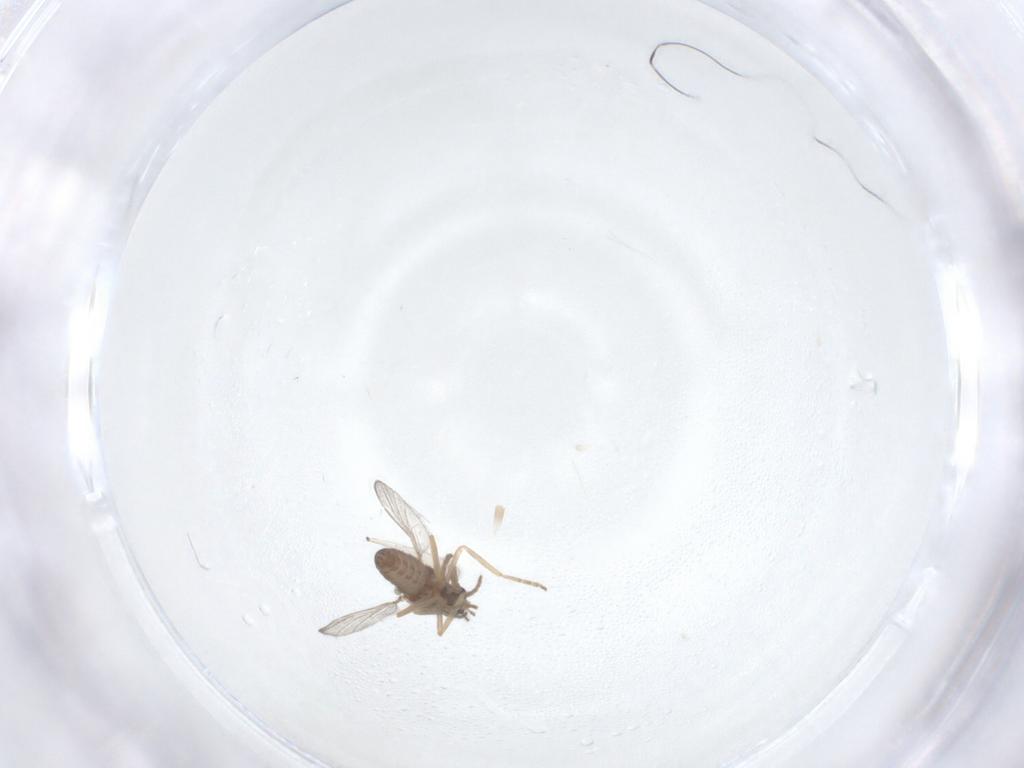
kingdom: Animalia
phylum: Arthropoda
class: Insecta
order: Diptera
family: Ceratopogonidae
